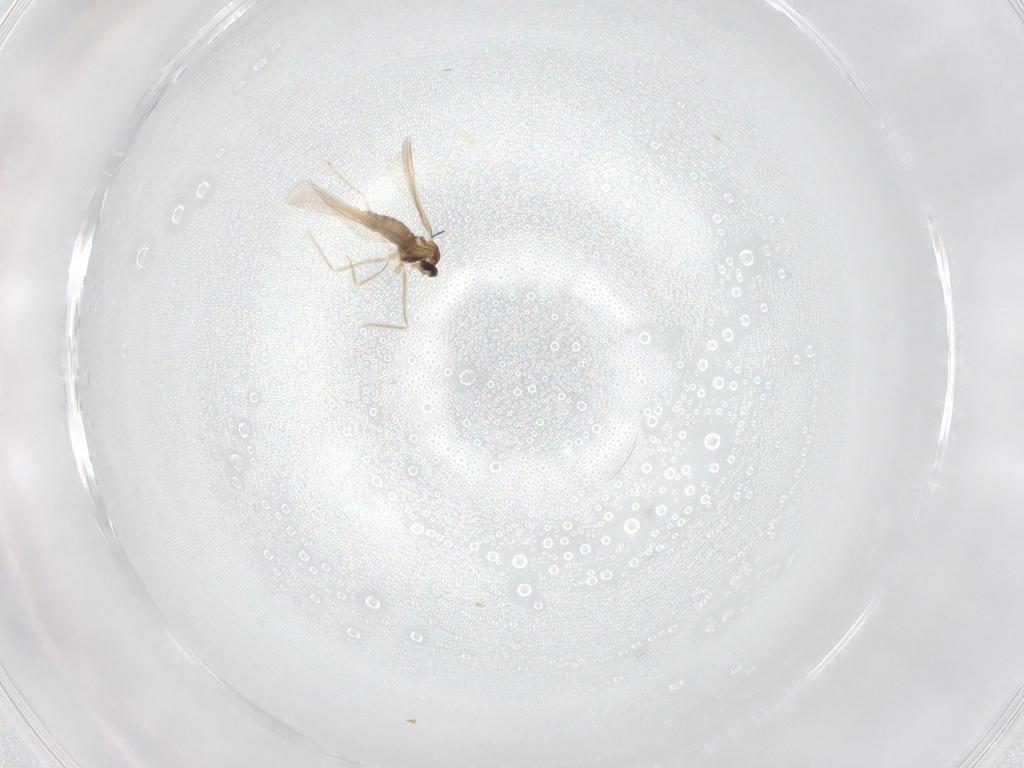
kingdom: Animalia
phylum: Arthropoda
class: Insecta
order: Diptera
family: Cecidomyiidae
